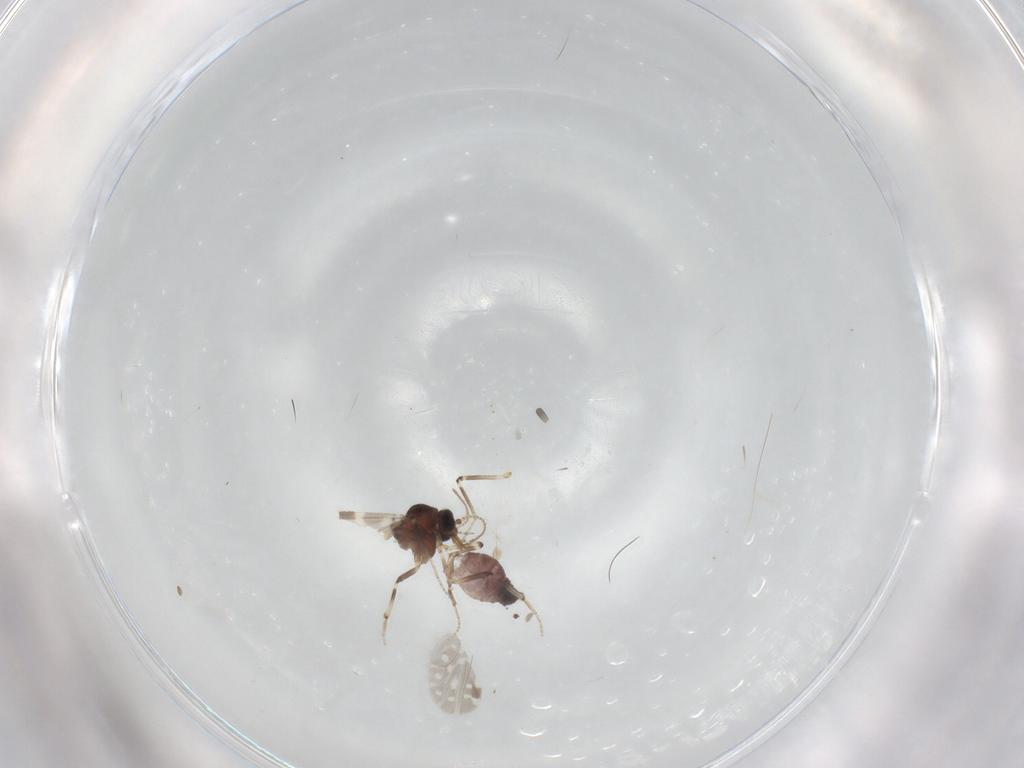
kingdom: Animalia
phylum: Arthropoda
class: Insecta
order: Diptera
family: Ceratopogonidae
